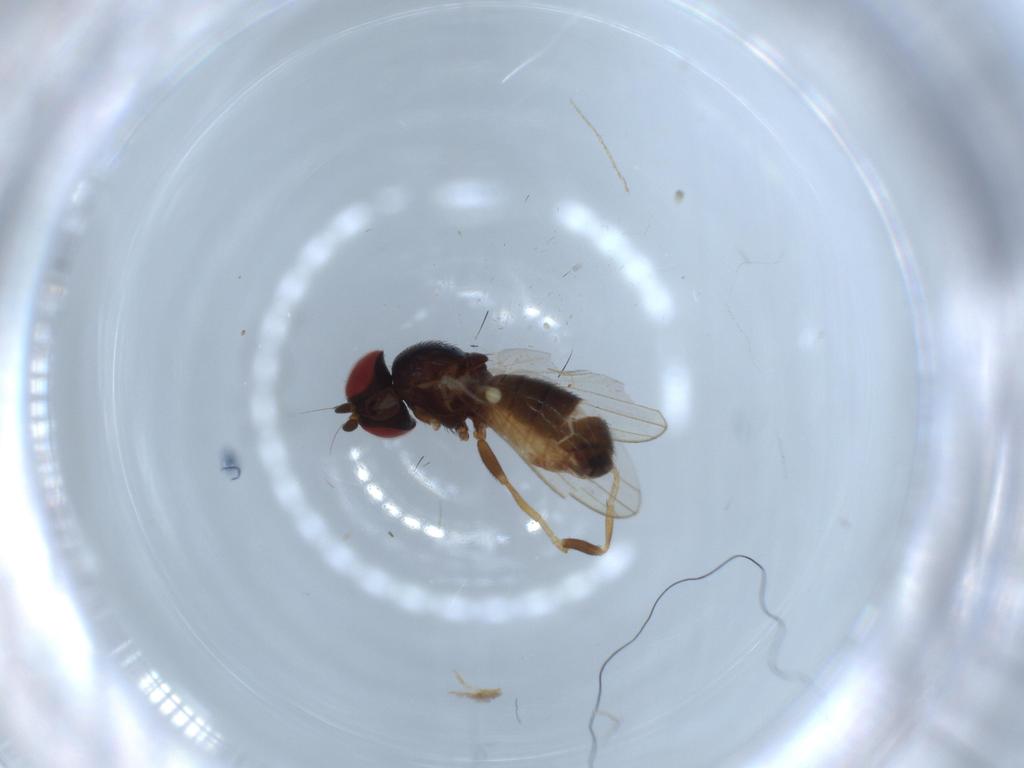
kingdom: Animalia
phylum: Arthropoda
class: Insecta
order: Diptera
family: Chamaemyiidae
